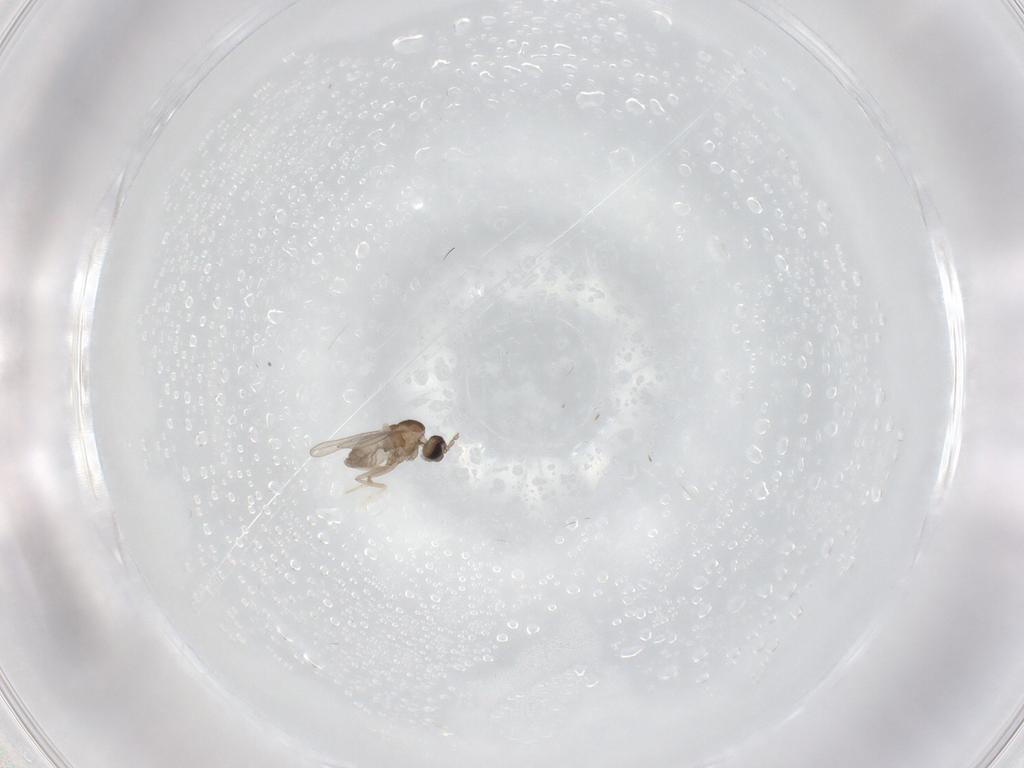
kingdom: Animalia
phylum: Arthropoda
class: Insecta
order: Diptera
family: Cecidomyiidae
